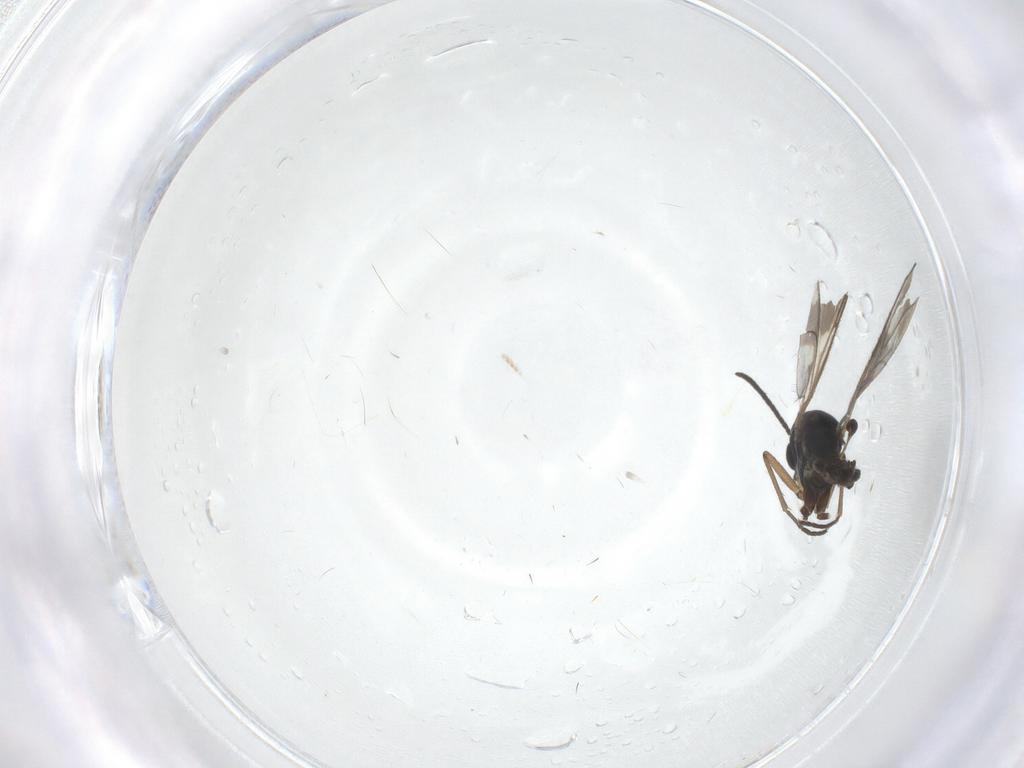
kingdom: Animalia
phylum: Arthropoda
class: Insecta
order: Diptera
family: Sciaridae
